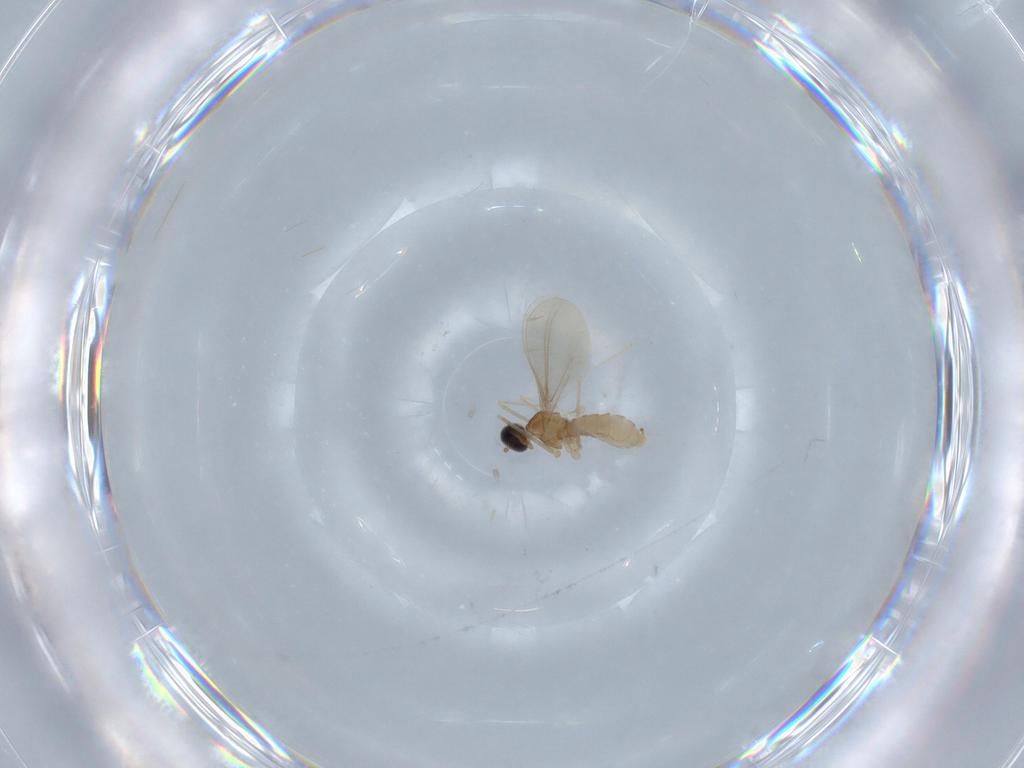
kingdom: Animalia
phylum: Arthropoda
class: Insecta
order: Diptera
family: Cecidomyiidae
